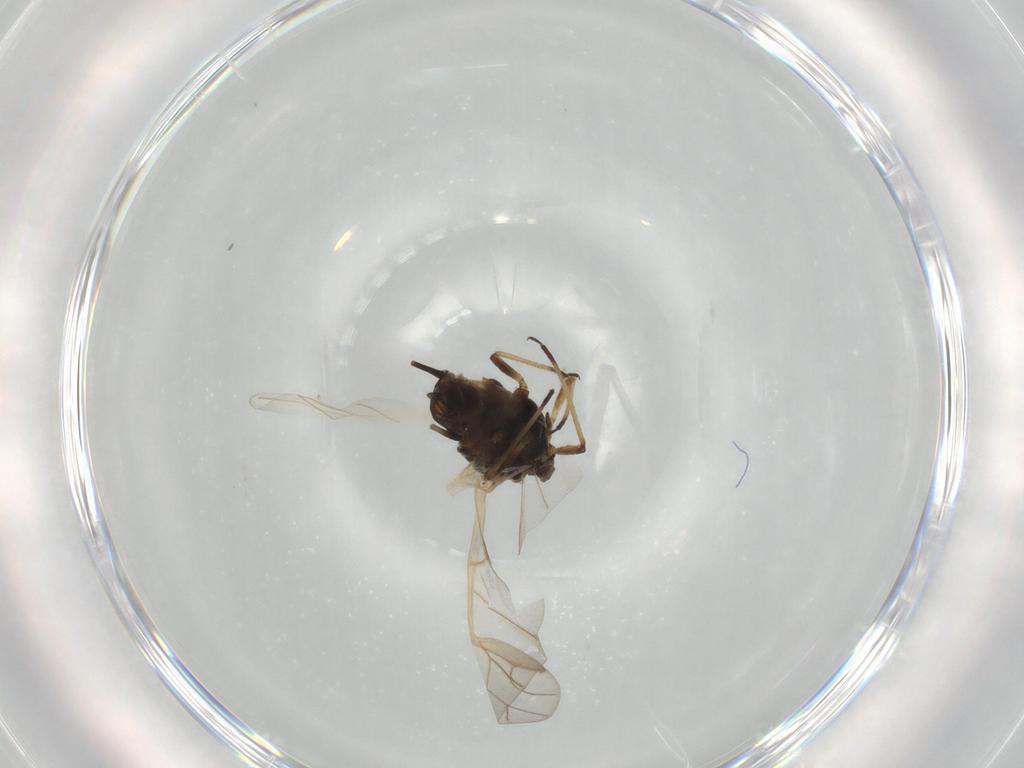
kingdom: Animalia
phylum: Arthropoda
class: Insecta
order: Hemiptera
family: Aphididae
